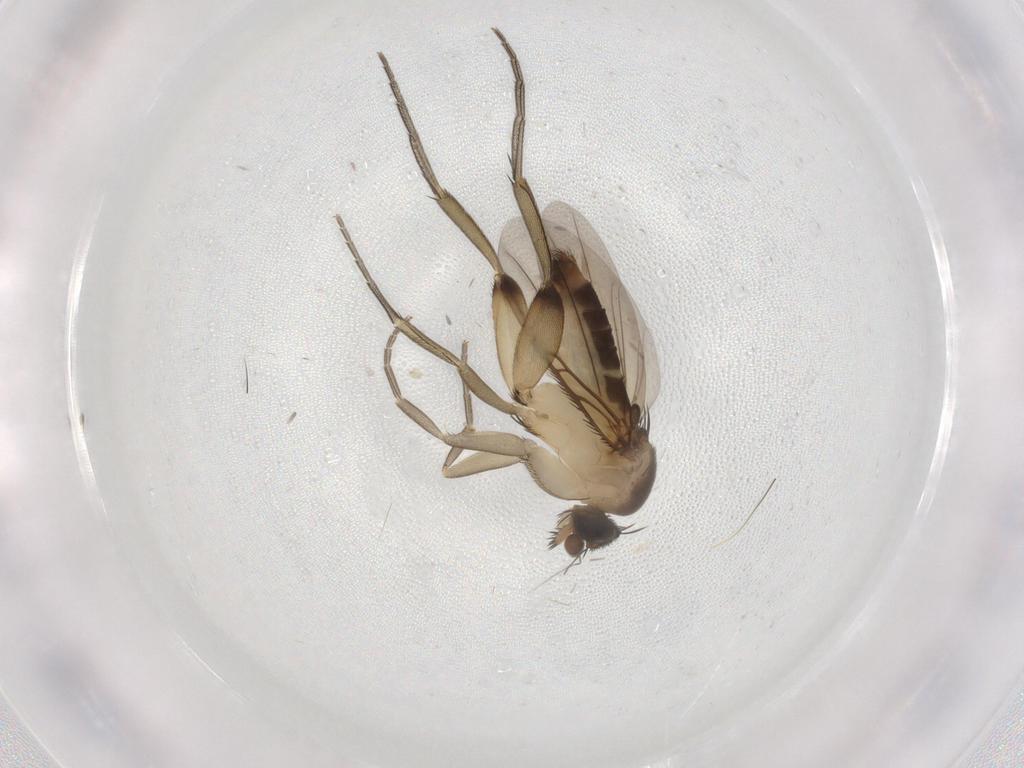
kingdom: Animalia
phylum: Arthropoda
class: Insecta
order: Diptera
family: Phoridae
